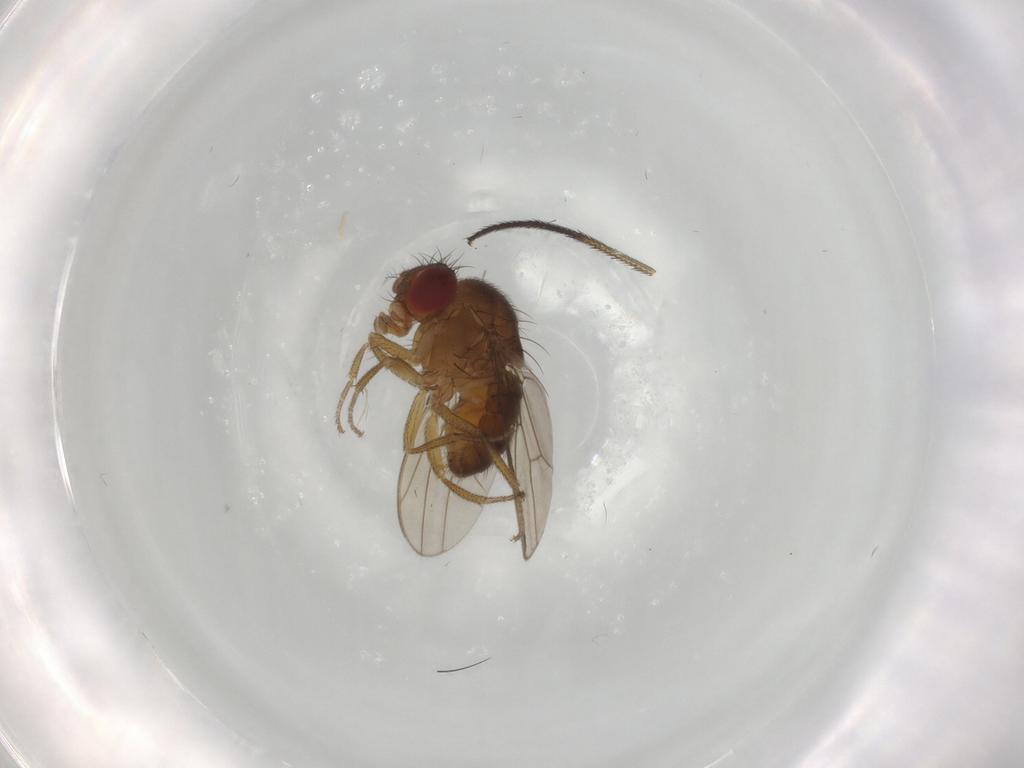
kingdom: Animalia
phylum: Arthropoda
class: Insecta
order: Diptera
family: Drosophilidae
